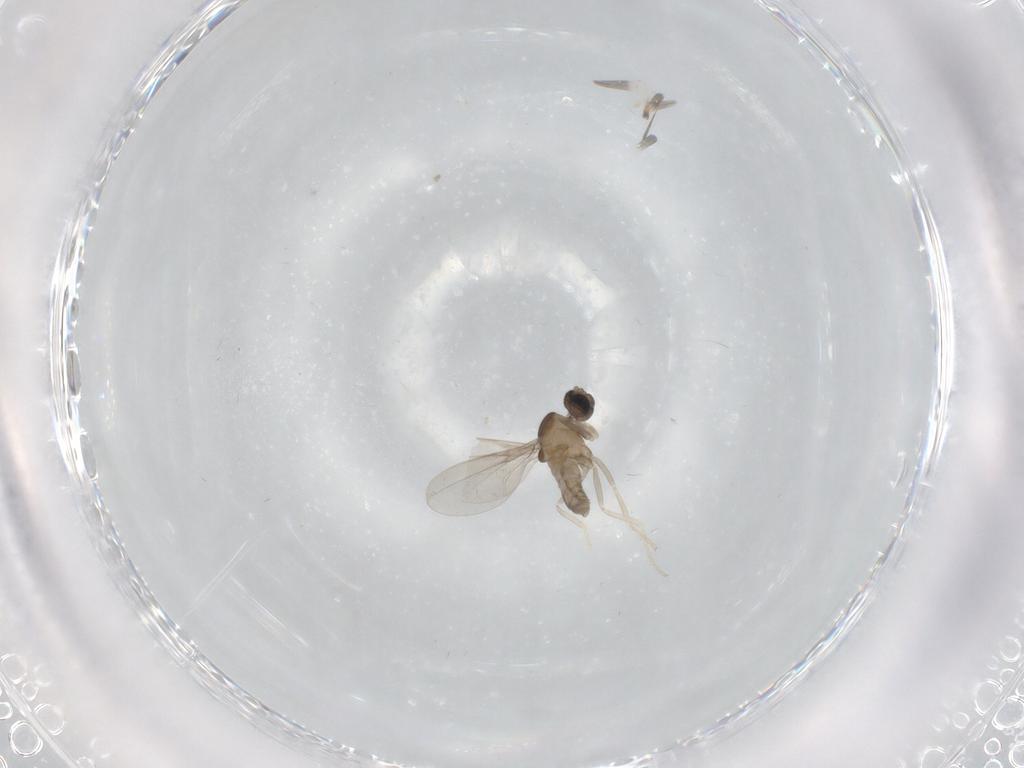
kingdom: Animalia
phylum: Arthropoda
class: Insecta
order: Diptera
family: Cecidomyiidae
